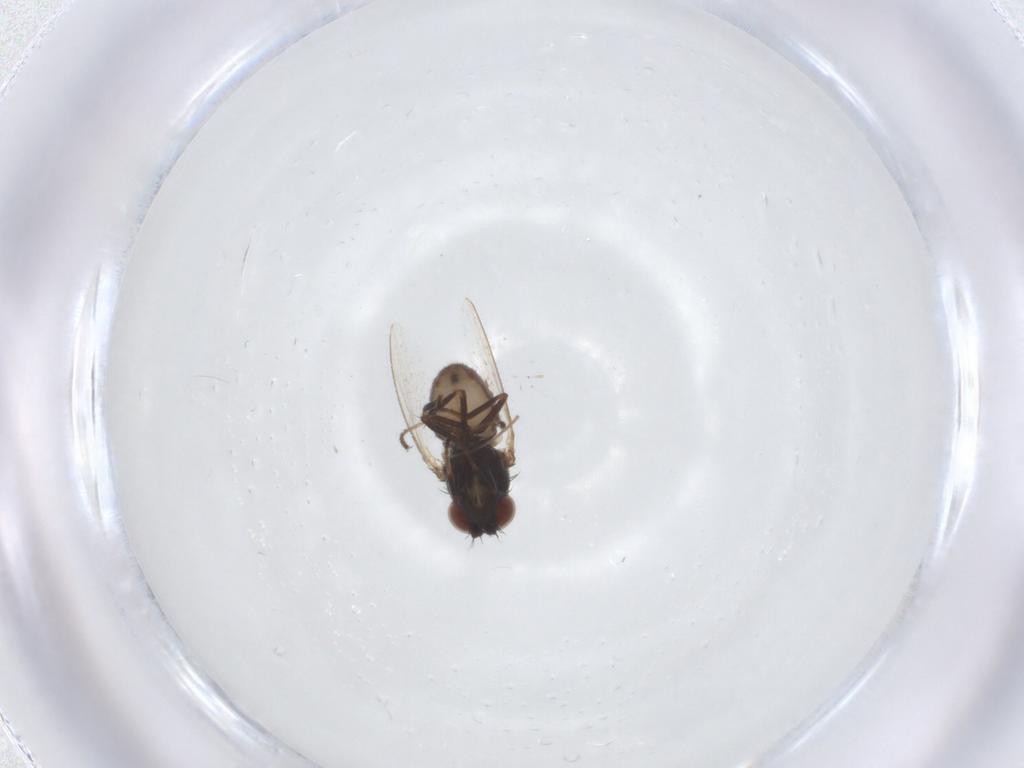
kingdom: Animalia
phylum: Arthropoda
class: Insecta
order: Diptera
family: Ephydridae
